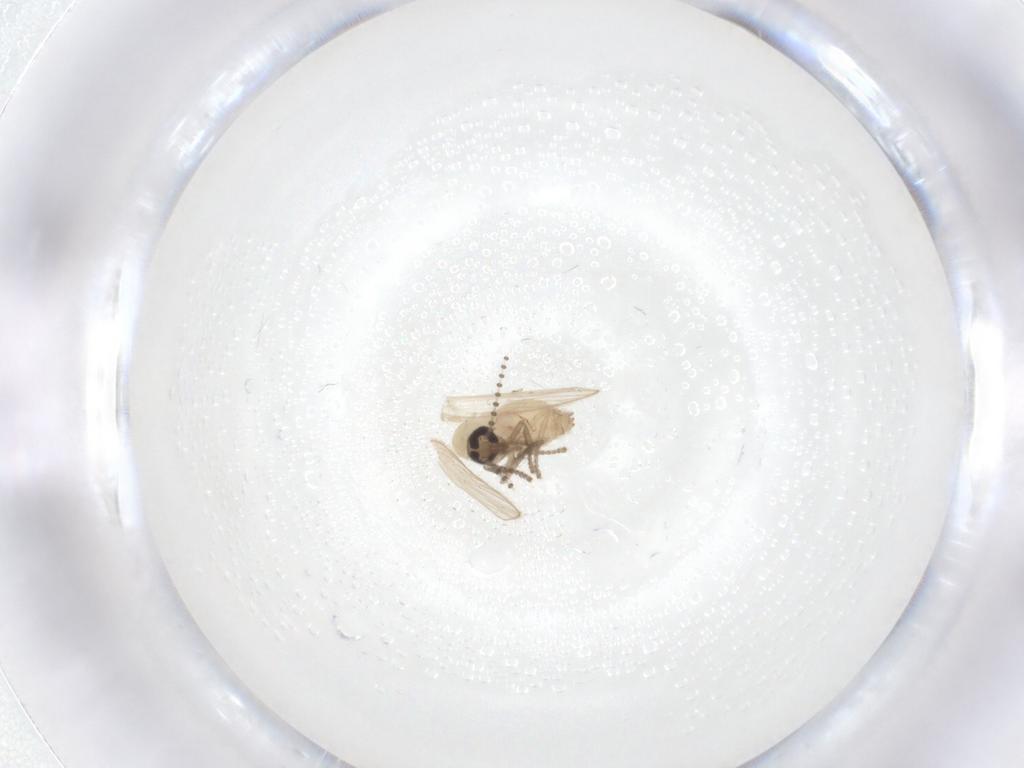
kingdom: Animalia
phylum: Arthropoda
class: Insecta
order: Diptera
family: Psychodidae
